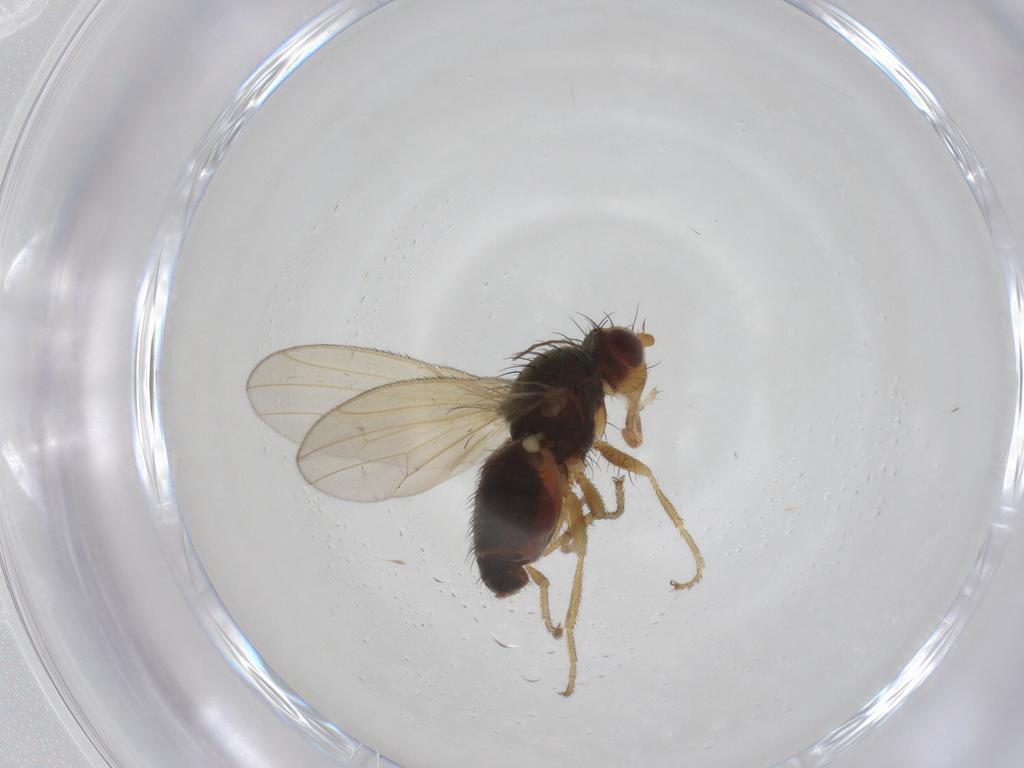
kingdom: Animalia
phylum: Arthropoda
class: Insecta
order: Diptera
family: Heleomyzidae
